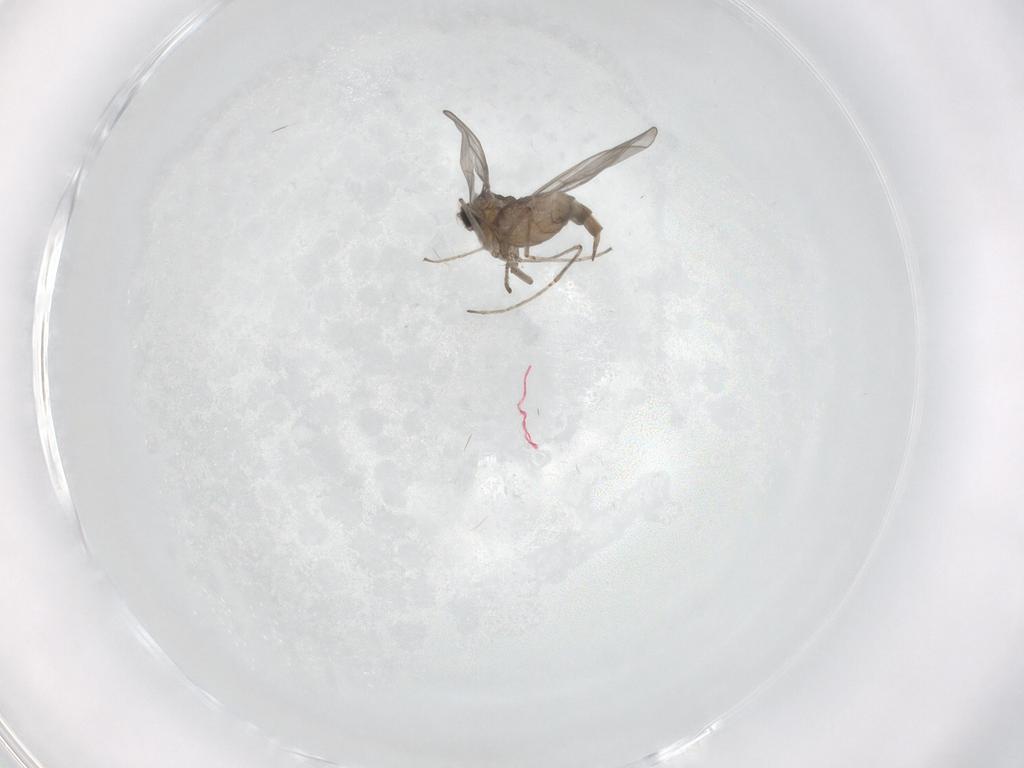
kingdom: Animalia
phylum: Arthropoda
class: Insecta
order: Diptera
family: Cecidomyiidae
